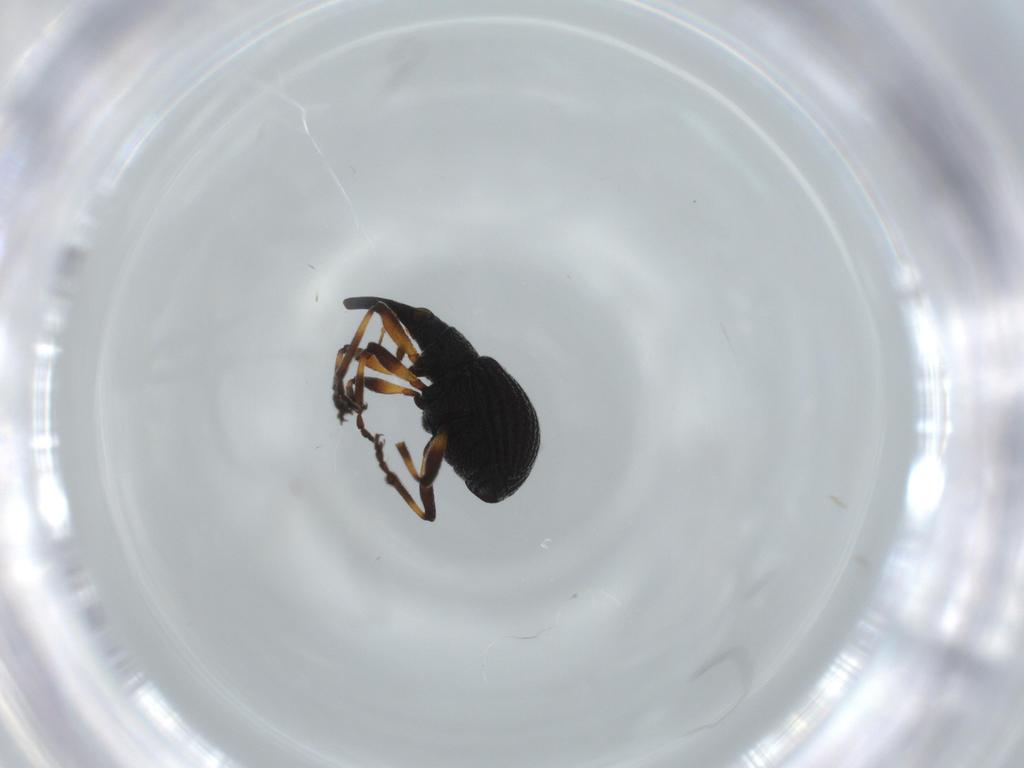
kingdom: Animalia
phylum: Arthropoda
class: Insecta
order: Coleoptera
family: Brentidae
